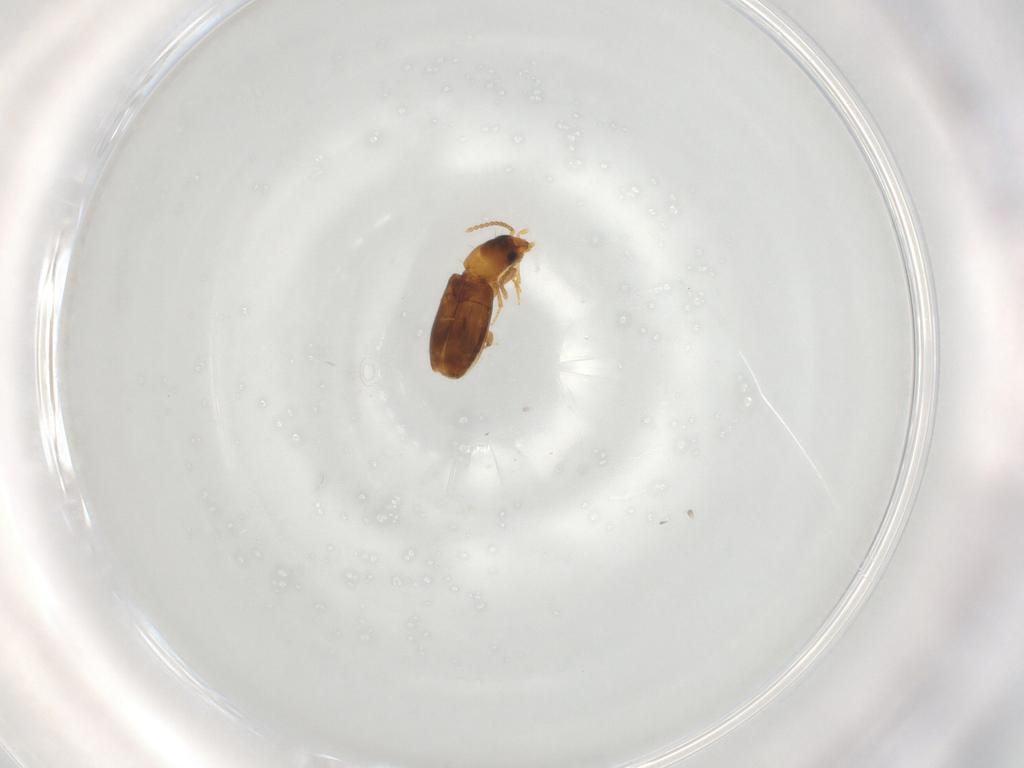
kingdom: Animalia
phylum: Arthropoda
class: Insecta
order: Coleoptera
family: Carabidae
